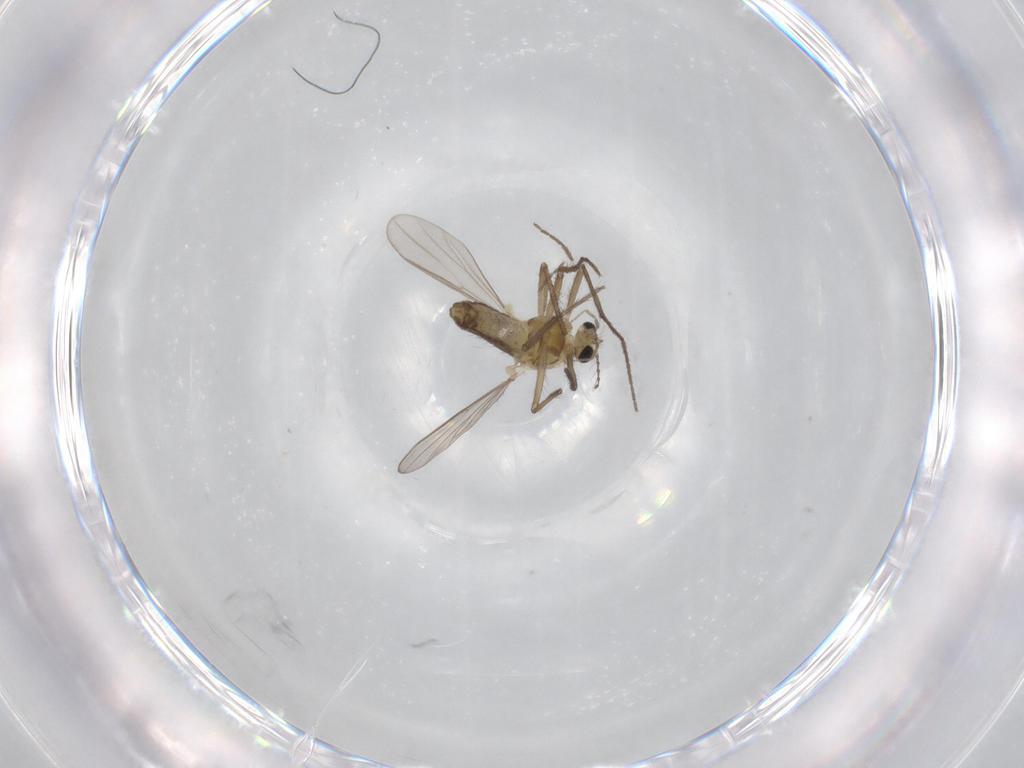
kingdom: Animalia
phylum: Arthropoda
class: Insecta
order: Diptera
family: Chironomidae
